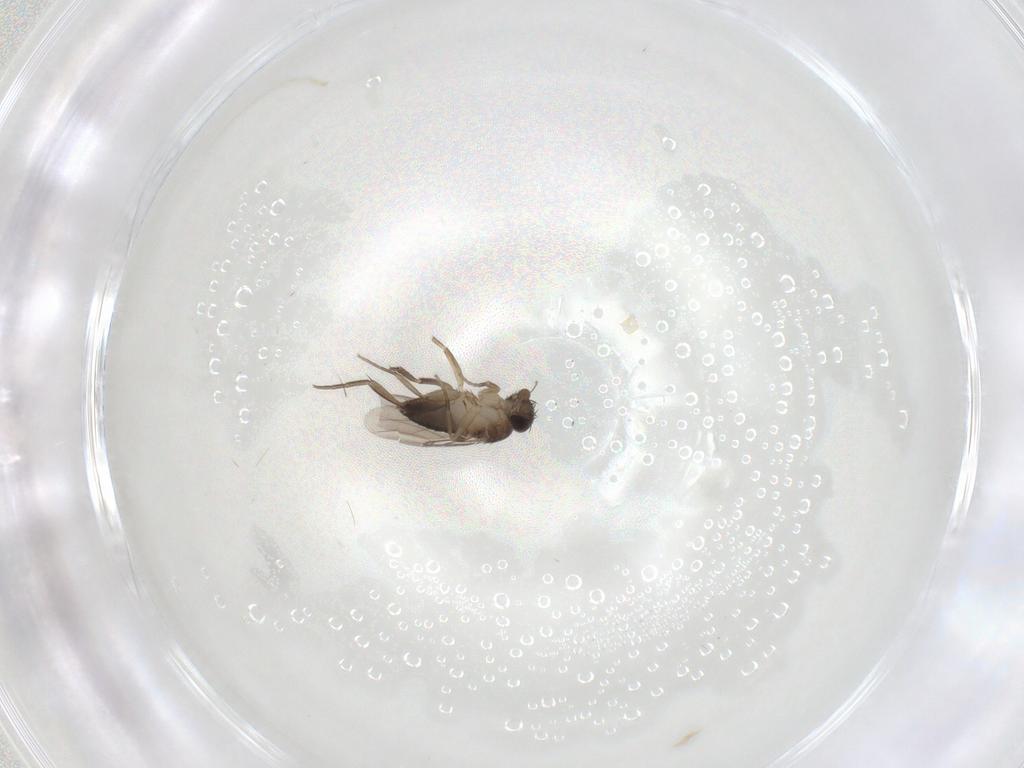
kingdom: Animalia
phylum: Arthropoda
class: Insecta
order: Diptera
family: Phoridae
